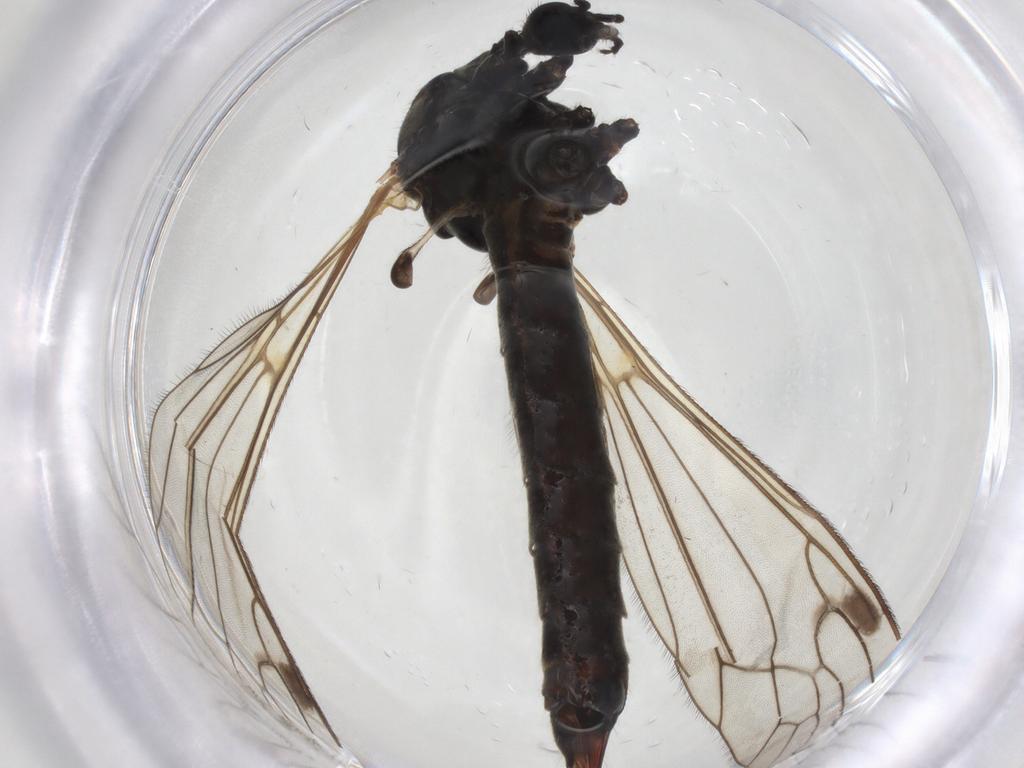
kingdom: Animalia
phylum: Arthropoda
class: Insecta
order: Diptera
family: Limoniidae
